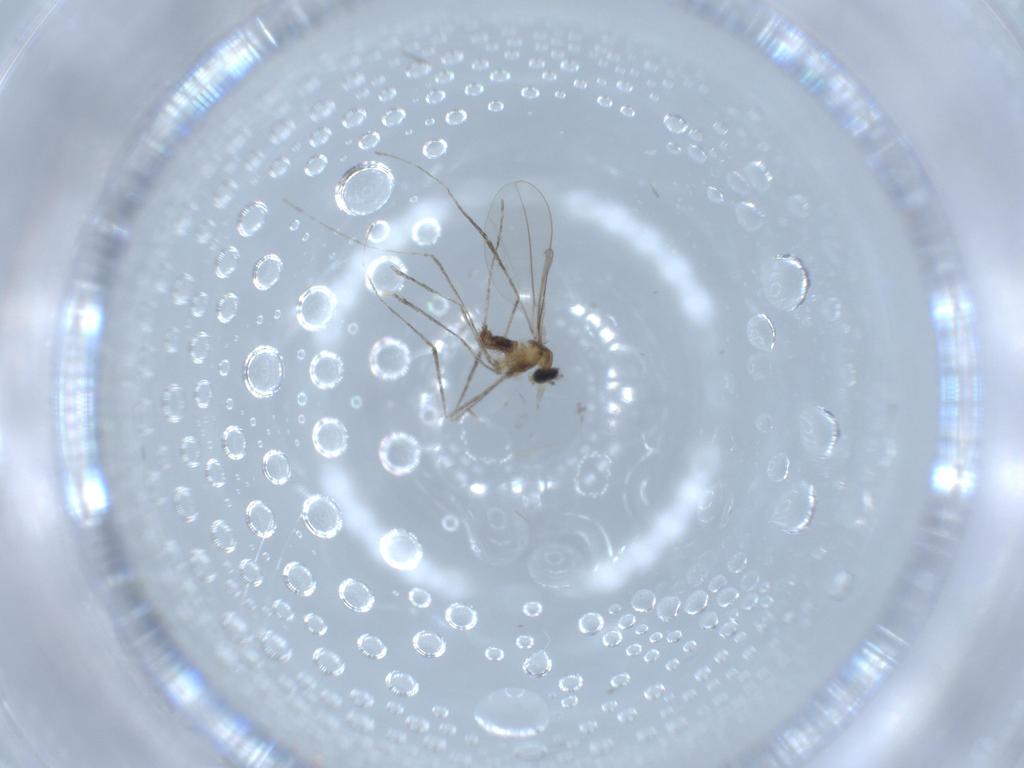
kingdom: Animalia
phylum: Arthropoda
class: Insecta
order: Diptera
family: Cecidomyiidae
